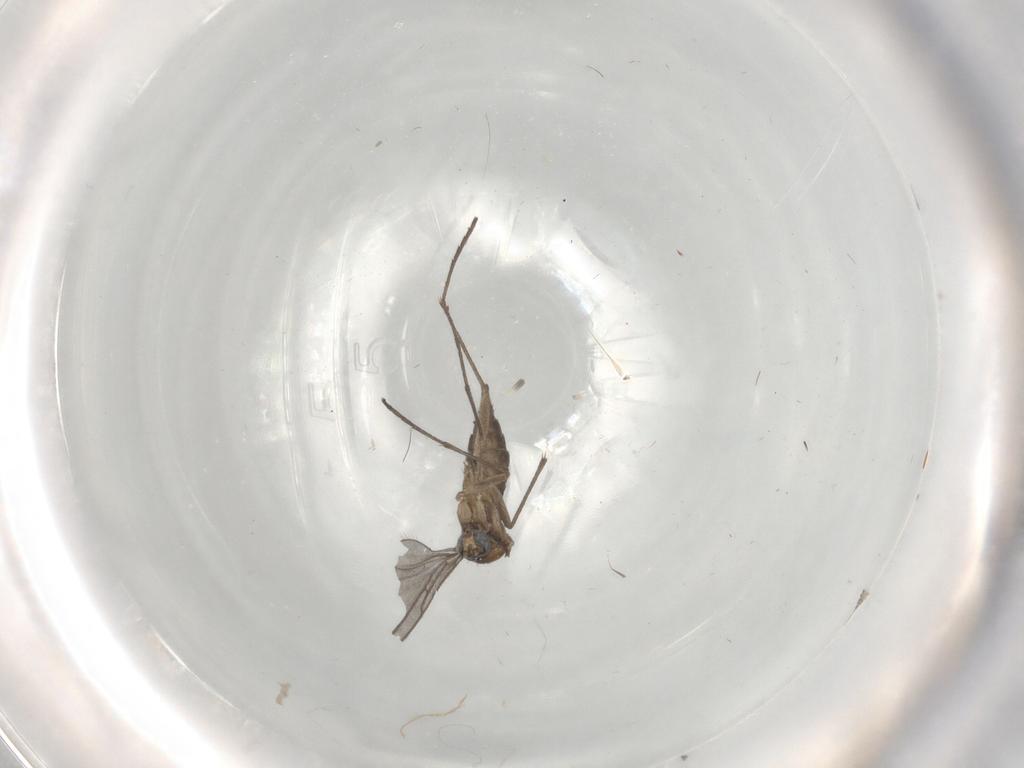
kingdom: Animalia
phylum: Arthropoda
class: Insecta
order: Diptera
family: Sciaridae
